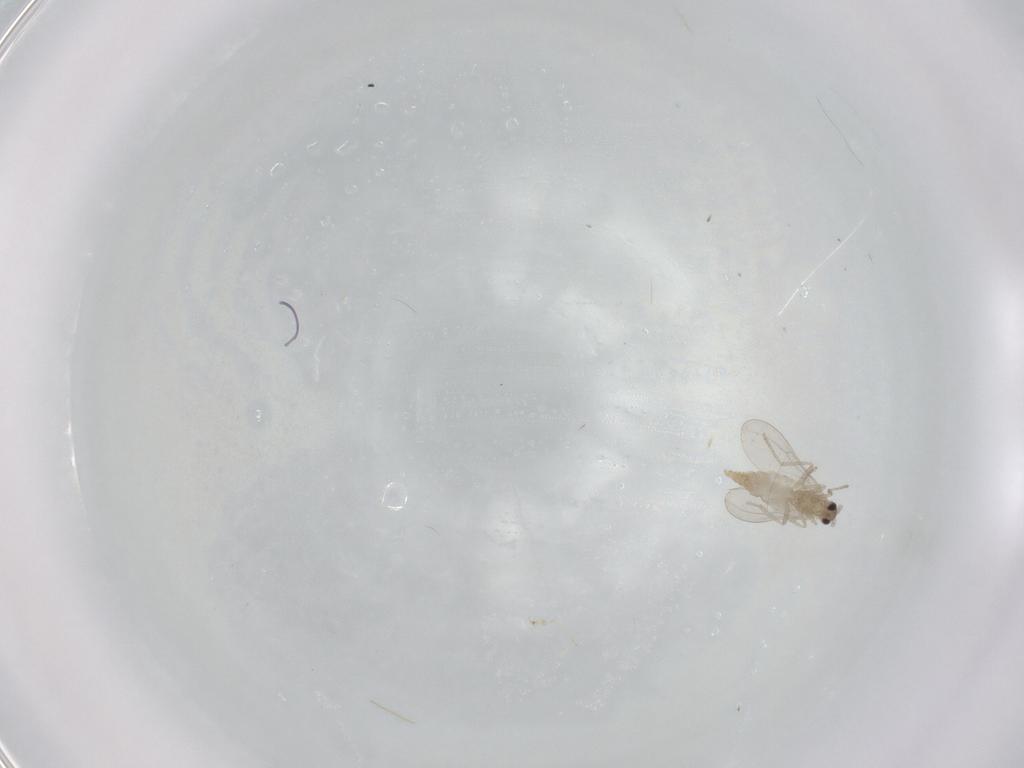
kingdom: Animalia
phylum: Arthropoda
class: Insecta
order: Diptera
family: Cecidomyiidae
